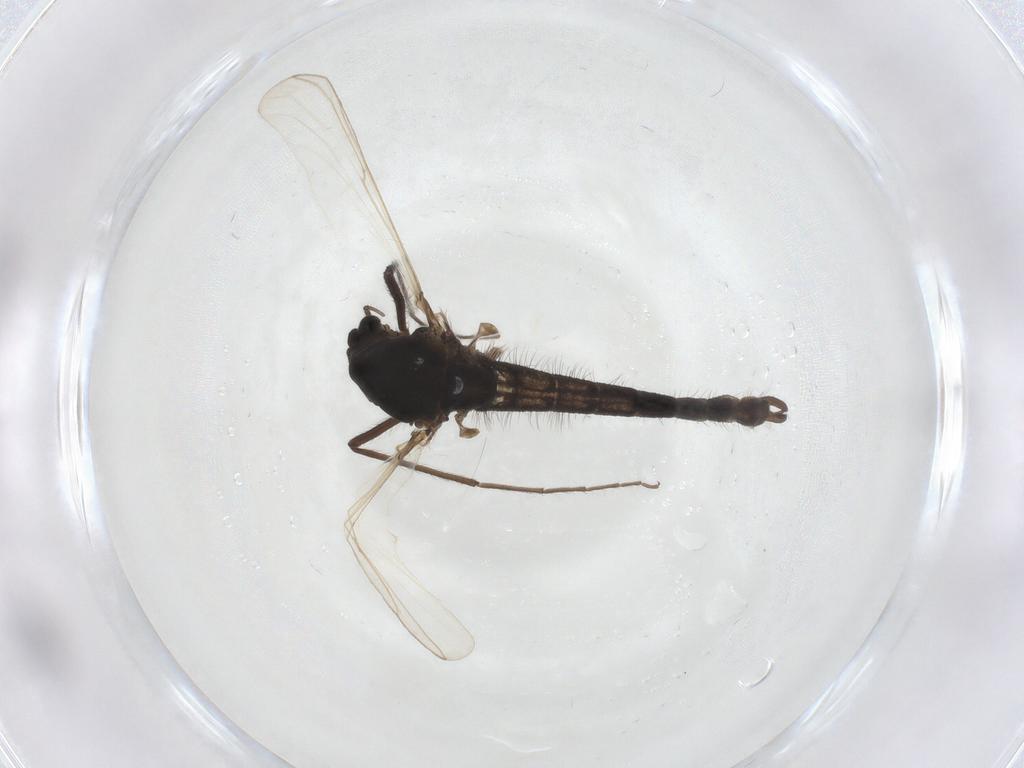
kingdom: Animalia
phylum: Arthropoda
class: Insecta
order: Diptera
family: Chironomidae
